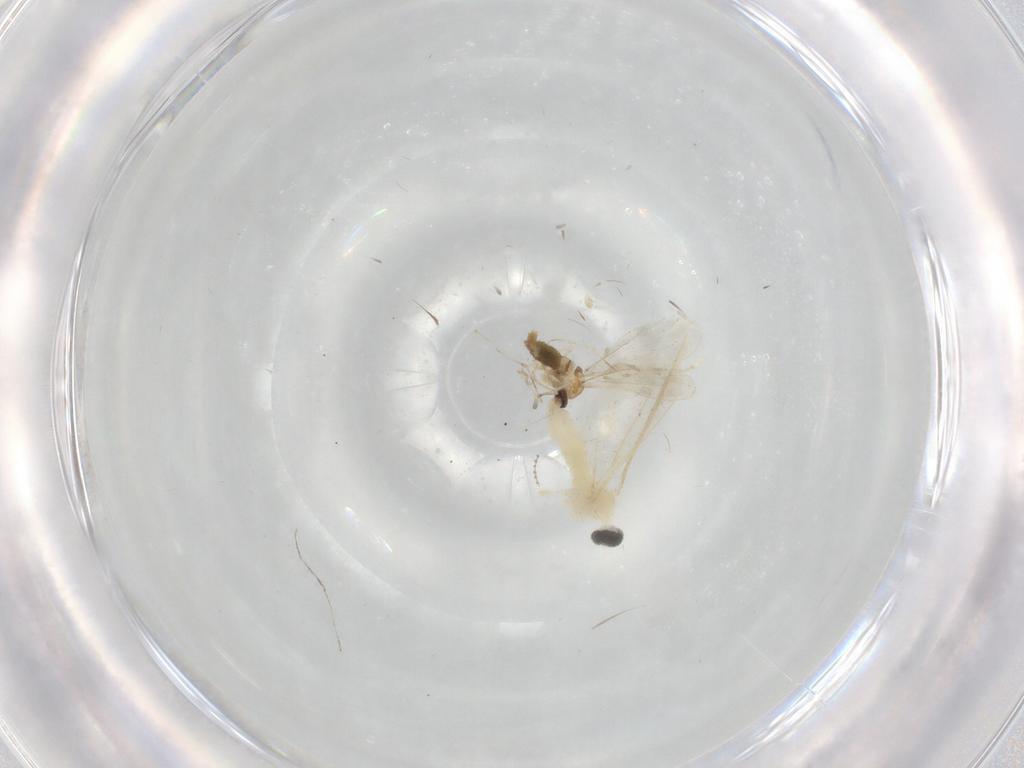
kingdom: Animalia
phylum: Arthropoda
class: Insecta
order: Diptera
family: Cecidomyiidae
